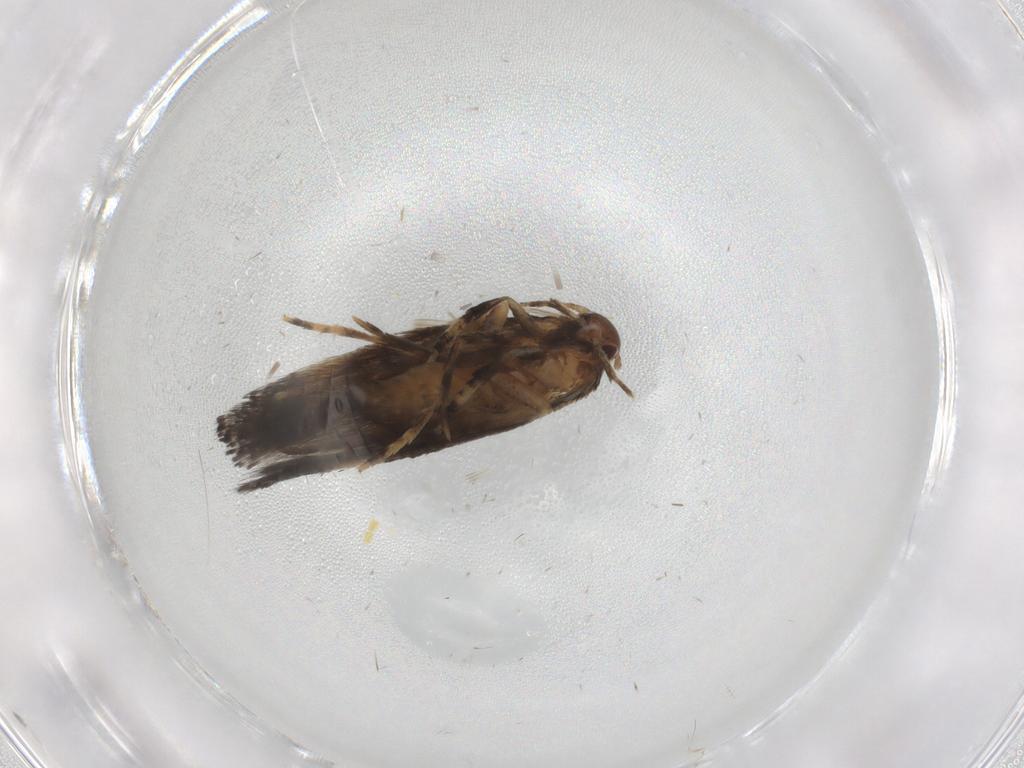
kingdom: Animalia
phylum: Arthropoda
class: Insecta
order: Lepidoptera
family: Elachistidae
